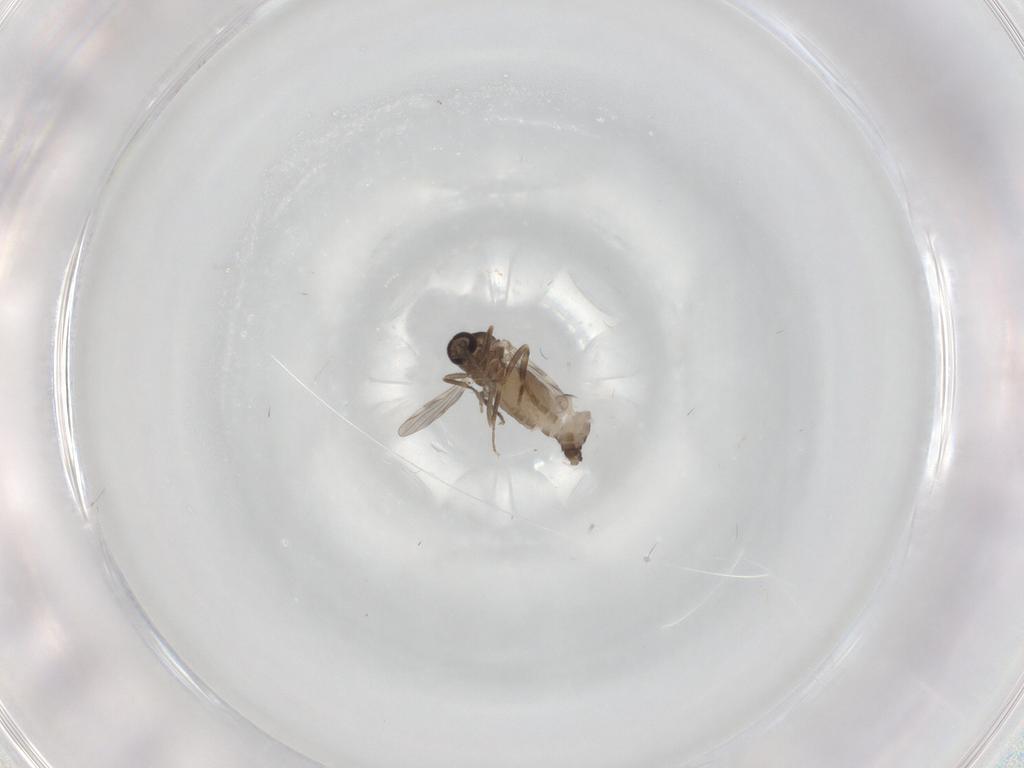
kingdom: Animalia
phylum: Arthropoda
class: Insecta
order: Diptera
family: Ceratopogonidae
